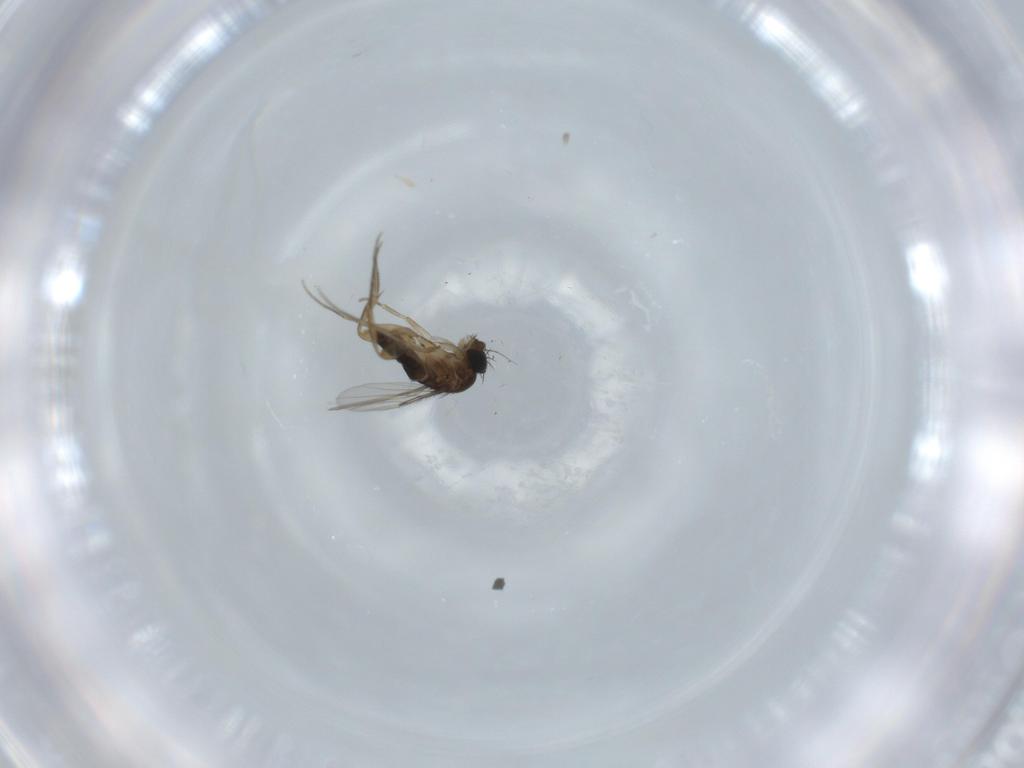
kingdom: Animalia
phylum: Arthropoda
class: Insecta
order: Diptera
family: Phoridae
